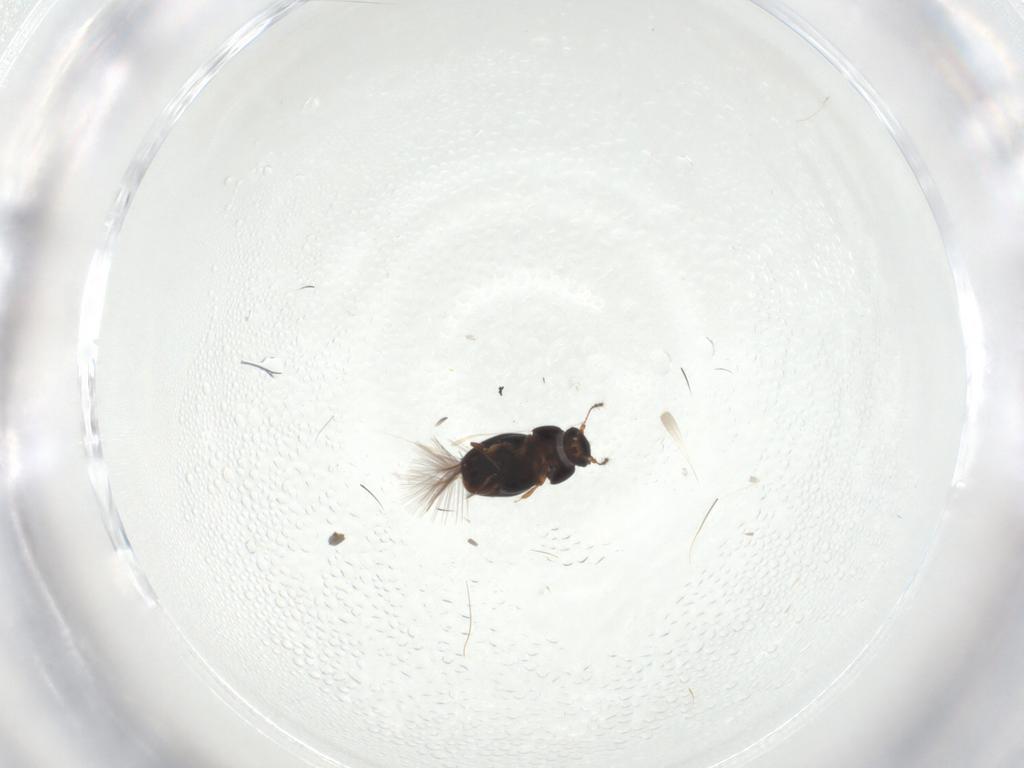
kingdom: Animalia
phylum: Arthropoda
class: Insecta
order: Coleoptera
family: Ptiliidae
